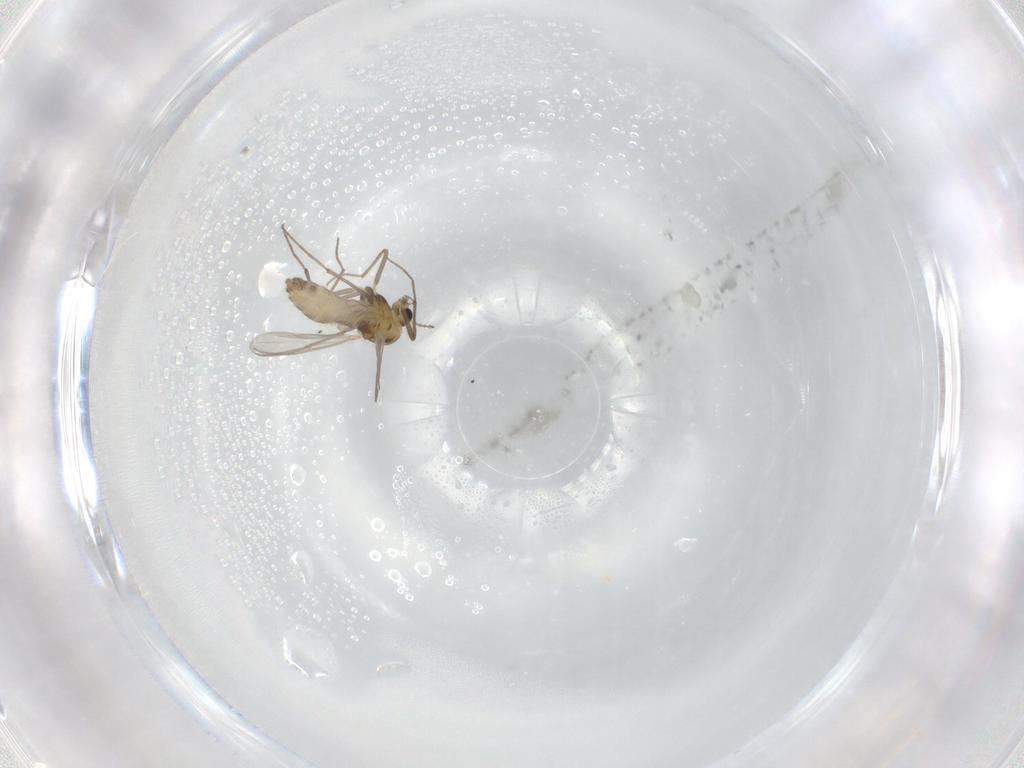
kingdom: Animalia
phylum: Arthropoda
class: Insecta
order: Diptera
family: Chironomidae
